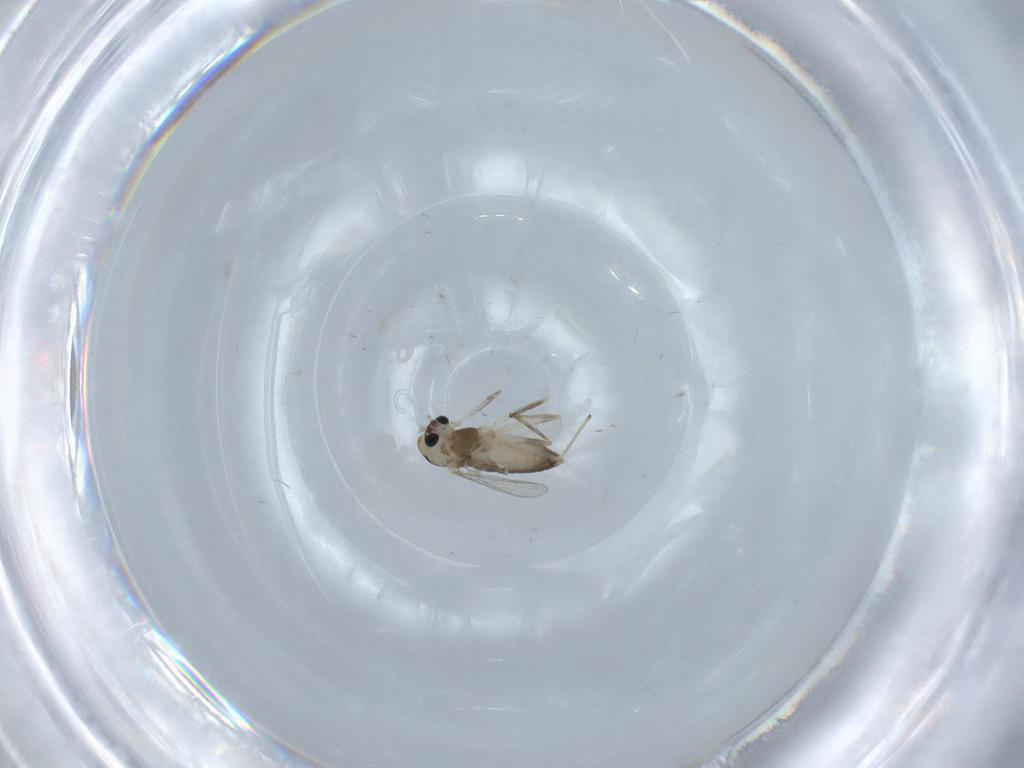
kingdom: Animalia
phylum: Arthropoda
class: Insecta
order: Diptera
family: Chironomidae
